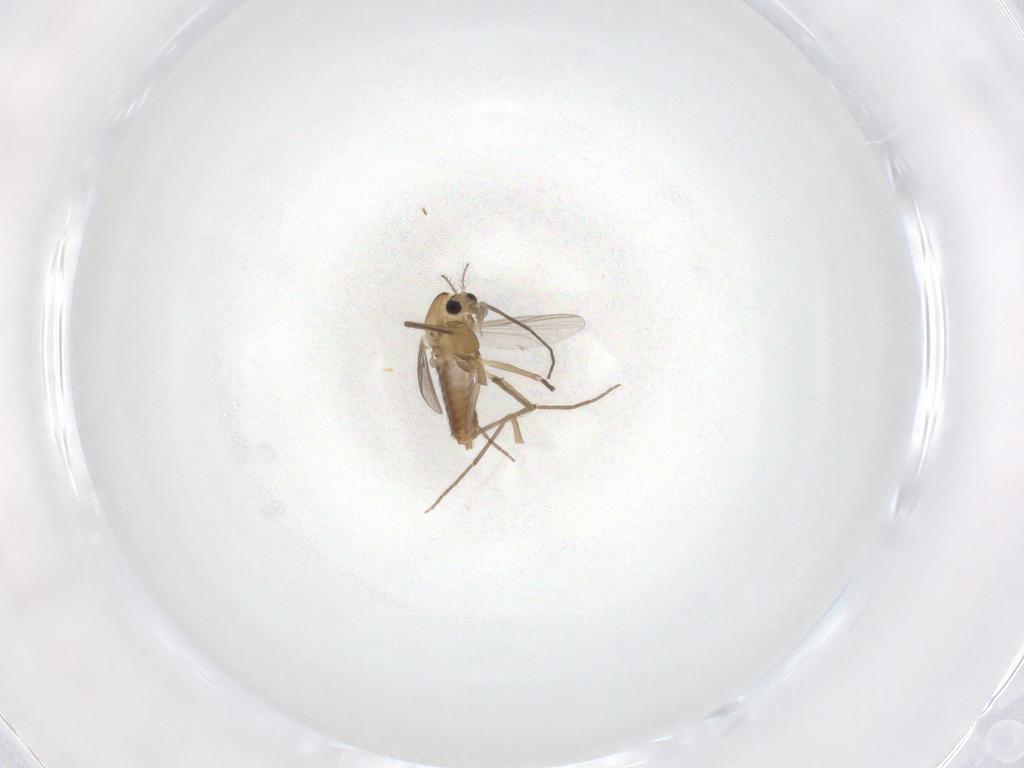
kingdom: Animalia
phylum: Arthropoda
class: Insecta
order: Diptera
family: Chironomidae
